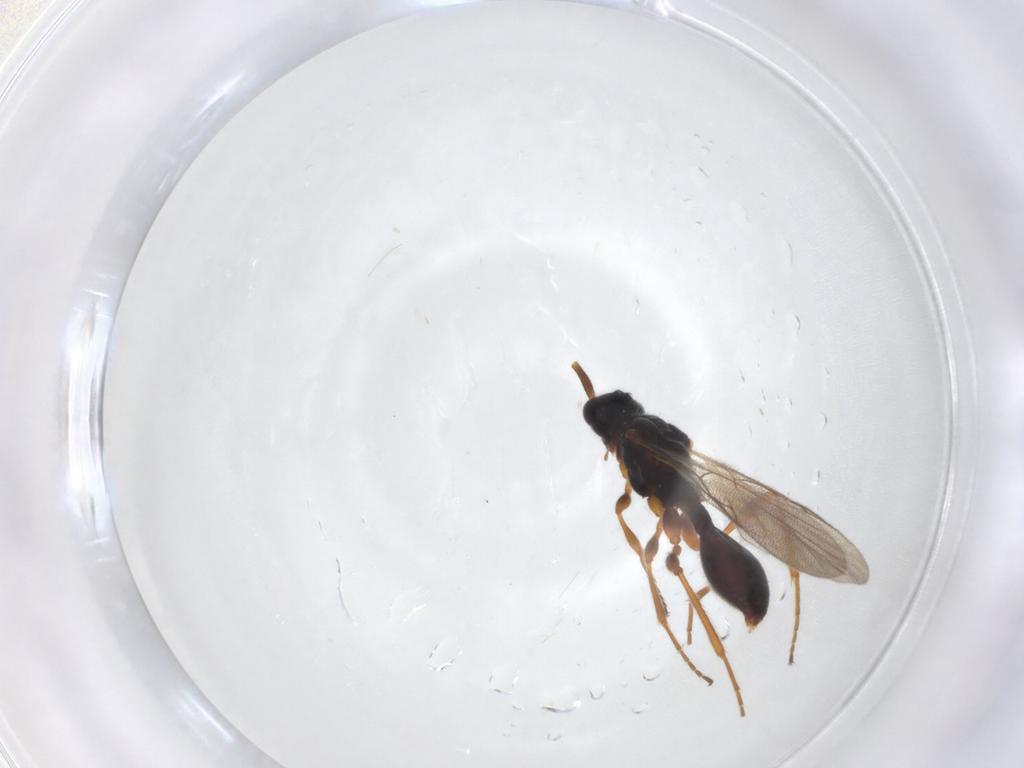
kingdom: Animalia
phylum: Arthropoda
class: Insecta
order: Hymenoptera
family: Diapriidae
